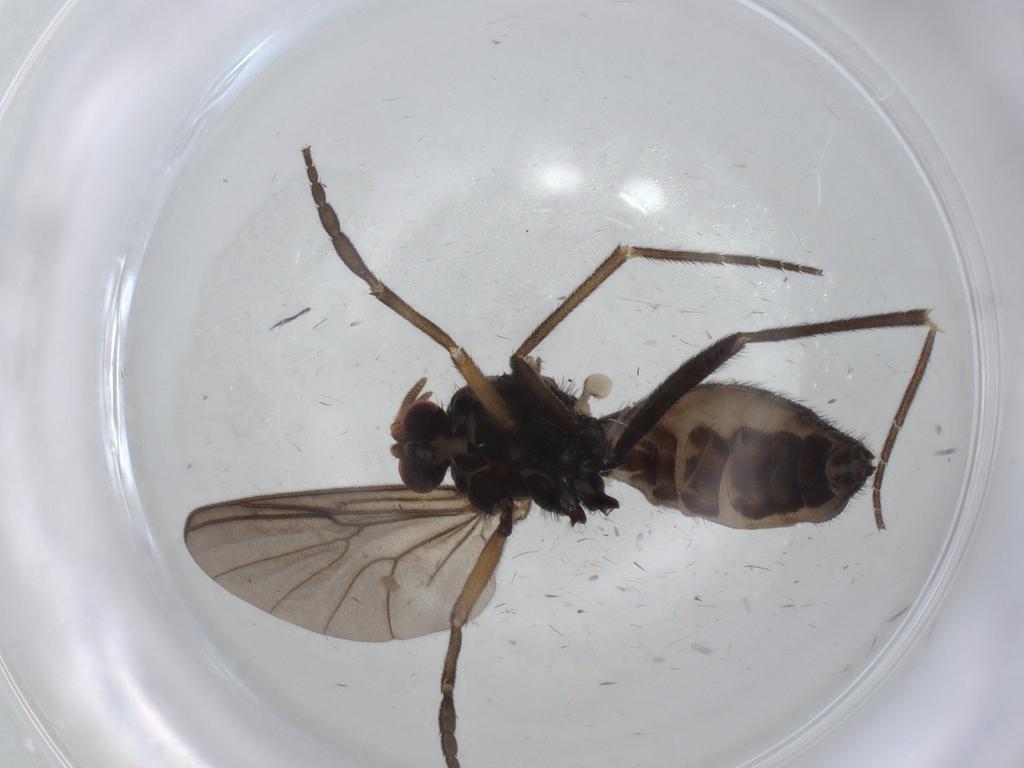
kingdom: Animalia
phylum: Arthropoda
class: Insecta
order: Diptera
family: Mycetophilidae
